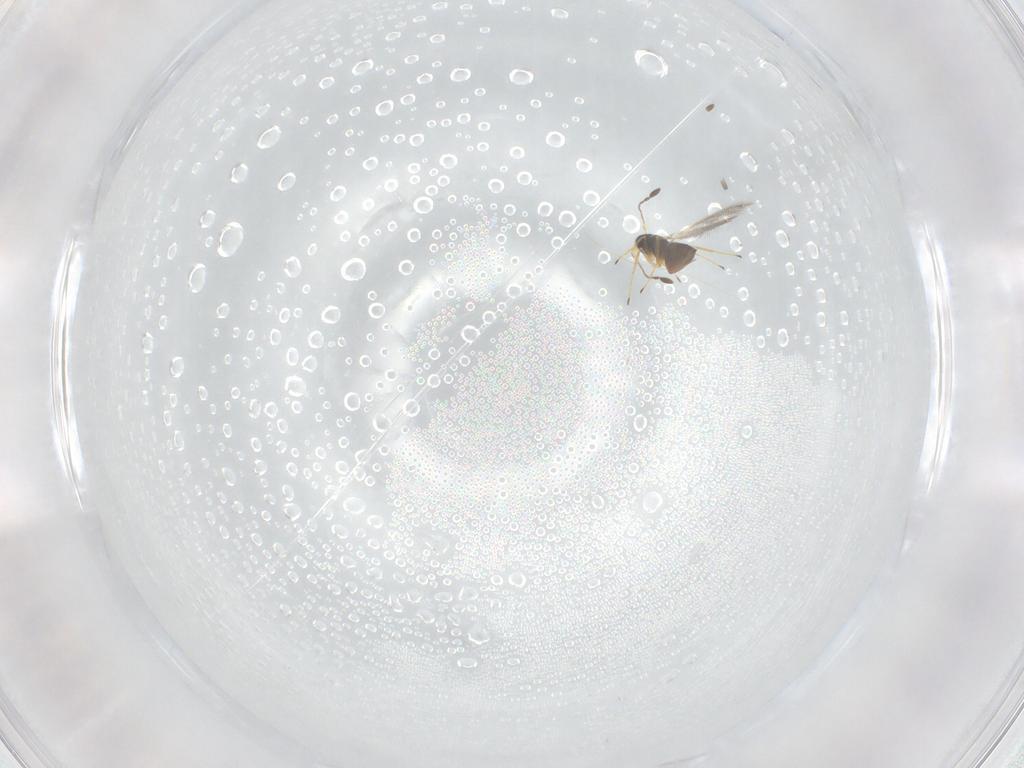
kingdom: Animalia
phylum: Arthropoda
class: Insecta
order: Hymenoptera
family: Mymaridae
